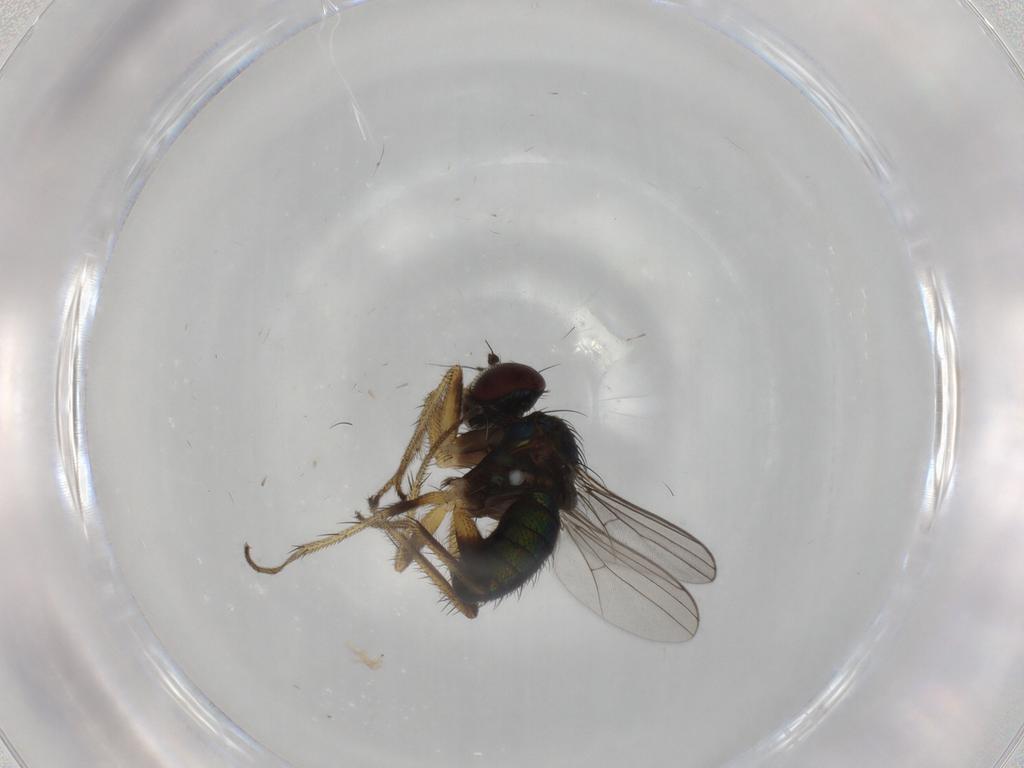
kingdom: Animalia
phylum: Arthropoda
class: Insecta
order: Diptera
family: Dolichopodidae
